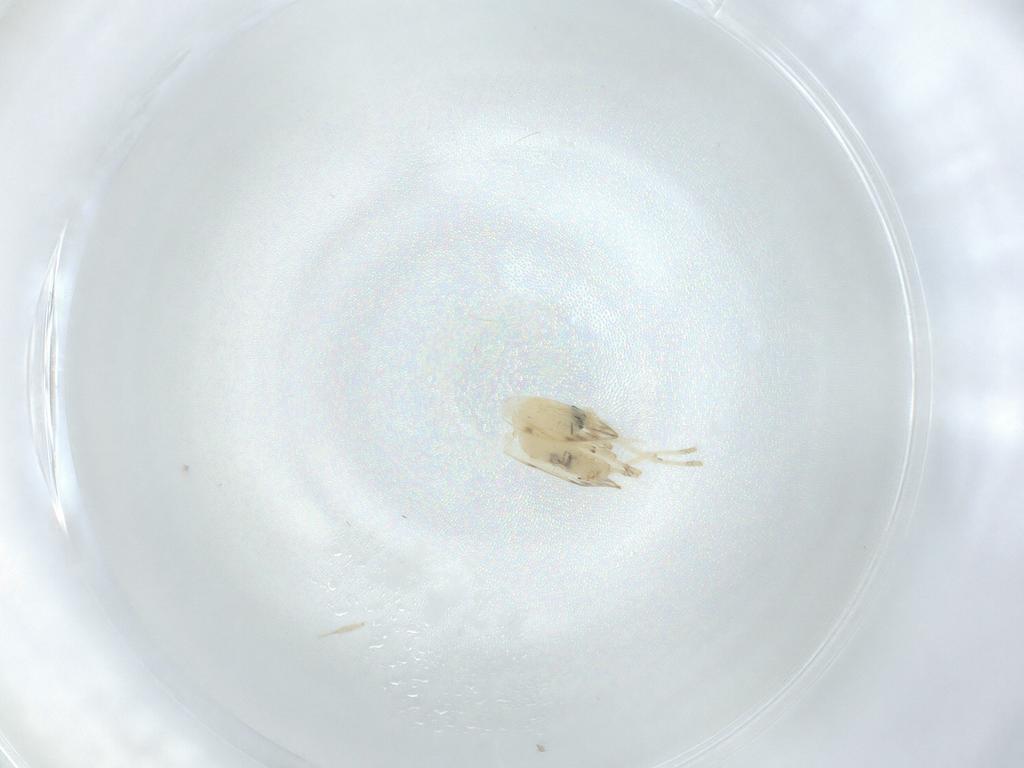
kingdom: Animalia
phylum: Arthropoda
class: Insecta
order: Diptera
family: Psychodidae
